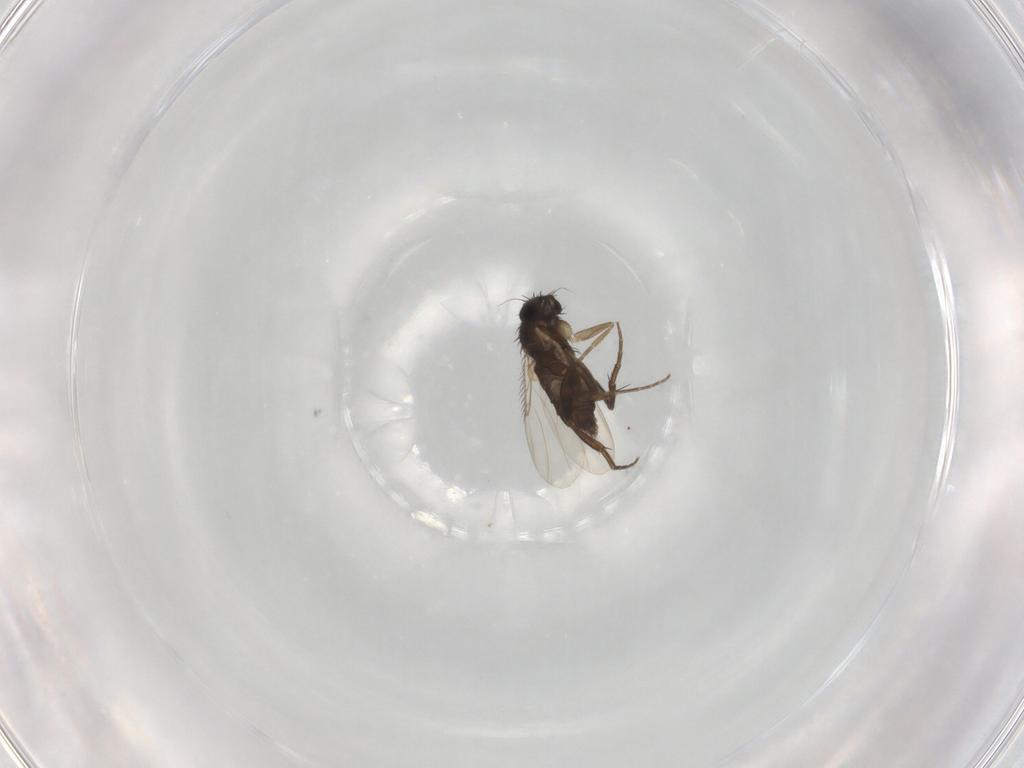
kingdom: Animalia
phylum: Arthropoda
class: Insecta
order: Diptera
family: Phoridae
